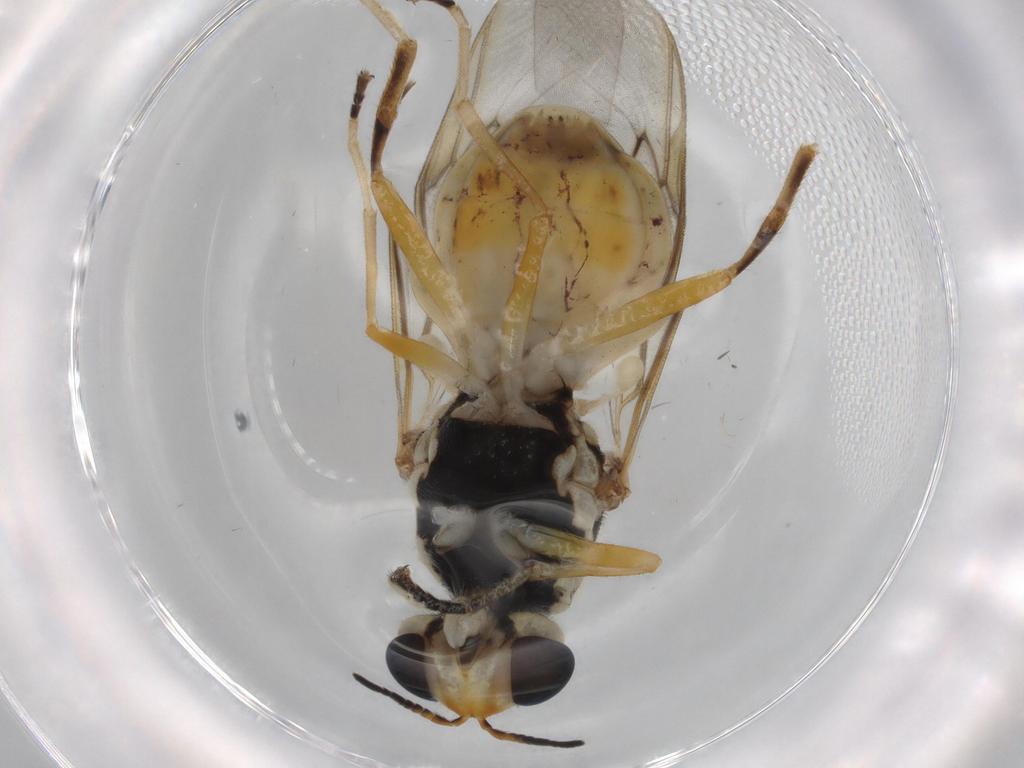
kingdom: Animalia
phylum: Arthropoda
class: Insecta
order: Diptera
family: Stratiomyidae
